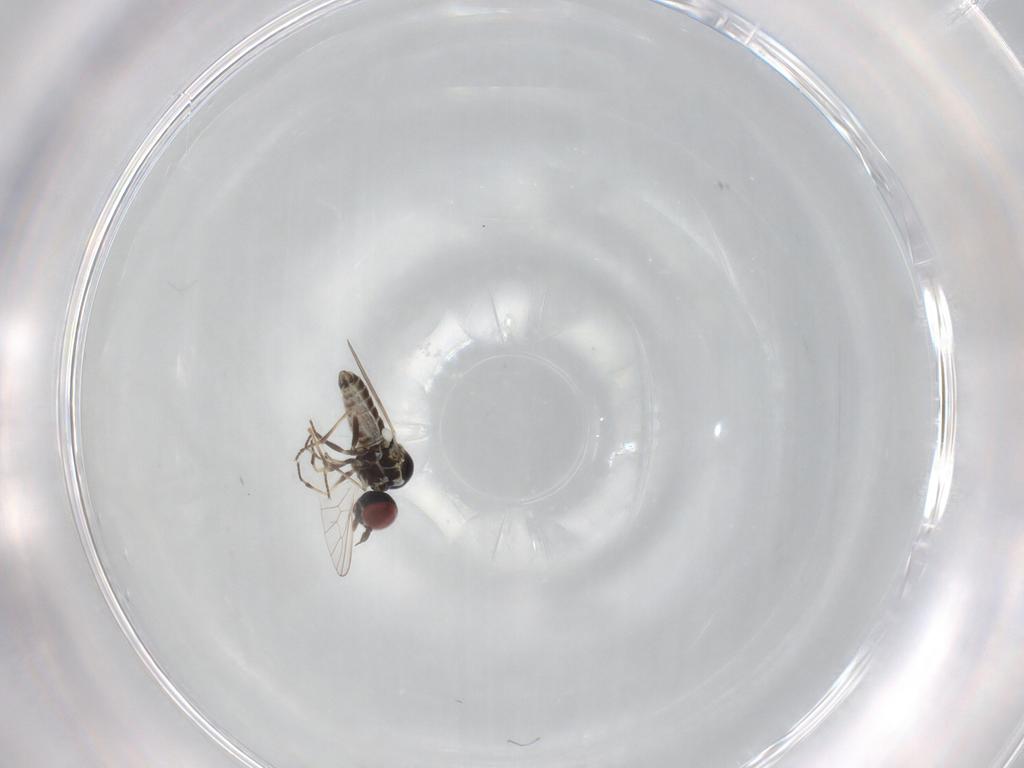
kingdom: Animalia
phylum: Arthropoda
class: Insecta
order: Diptera
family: Mythicomyiidae
